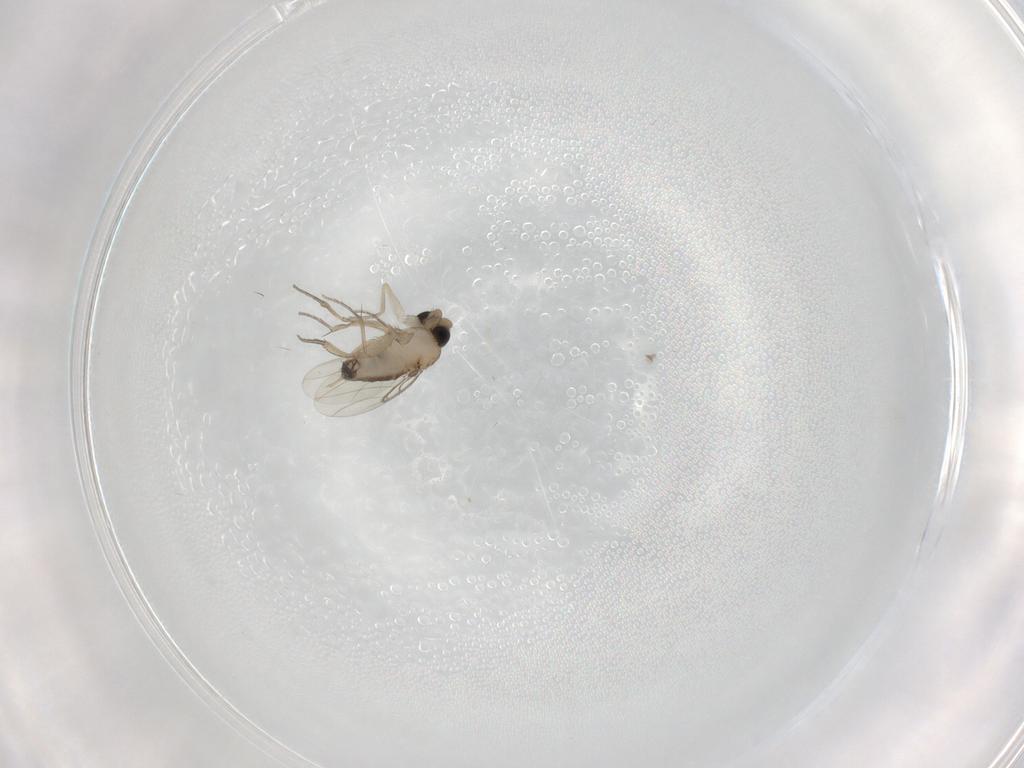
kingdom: Animalia
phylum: Arthropoda
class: Insecta
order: Diptera
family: Phoridae
